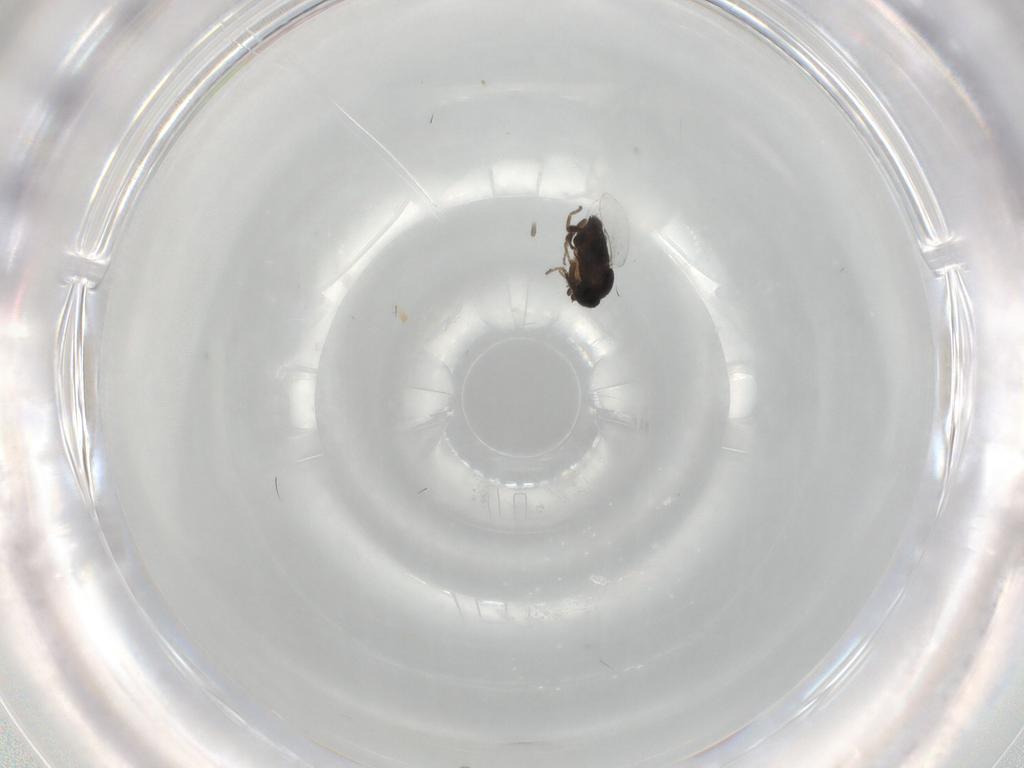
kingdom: Animalia
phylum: Arthropoda
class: Insecta
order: Diptera
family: Phoridae
